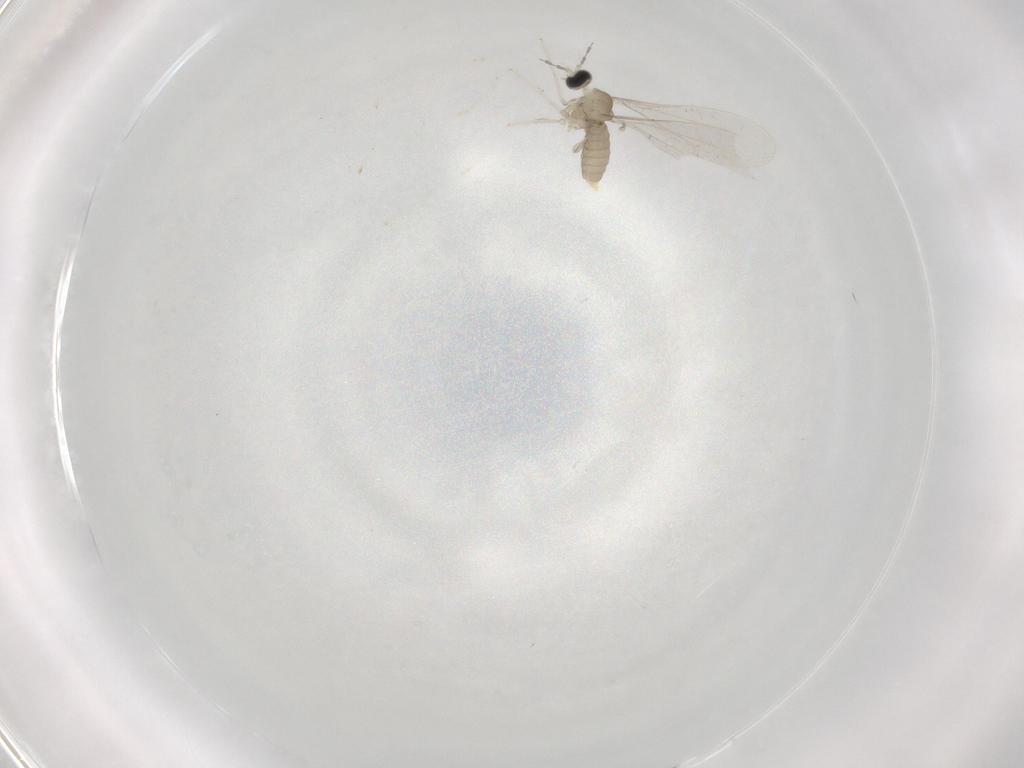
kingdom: Animalia
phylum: Arthropoda
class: Insecta
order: Diptera
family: Cecidomyiidae
